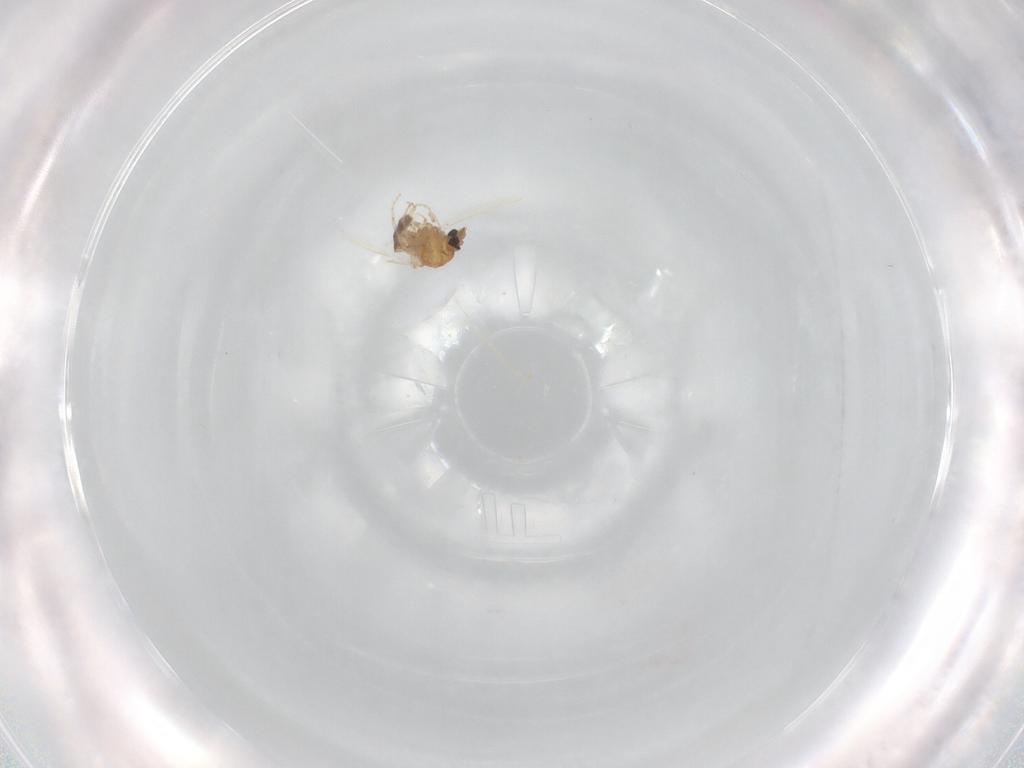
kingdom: Animalia
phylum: Arthropoda
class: Insecta
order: Diptera
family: Ceratopogonidae
